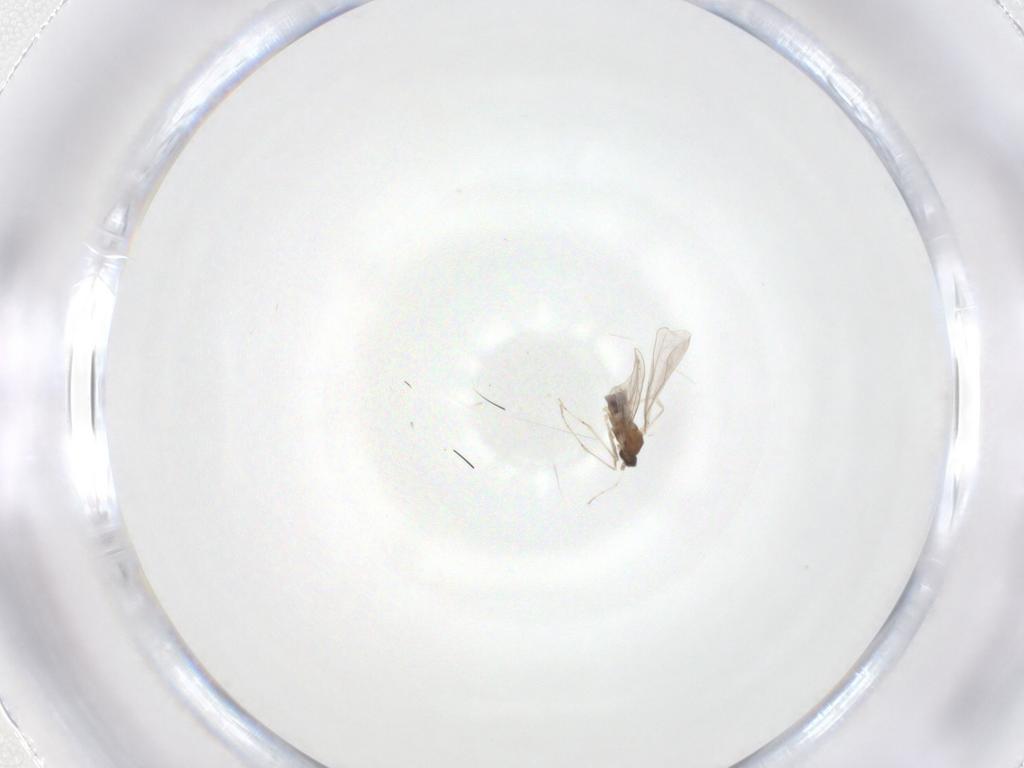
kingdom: Animalia
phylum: Arthropoda
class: Insecta
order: Diptera
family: Cecidomyiidae
